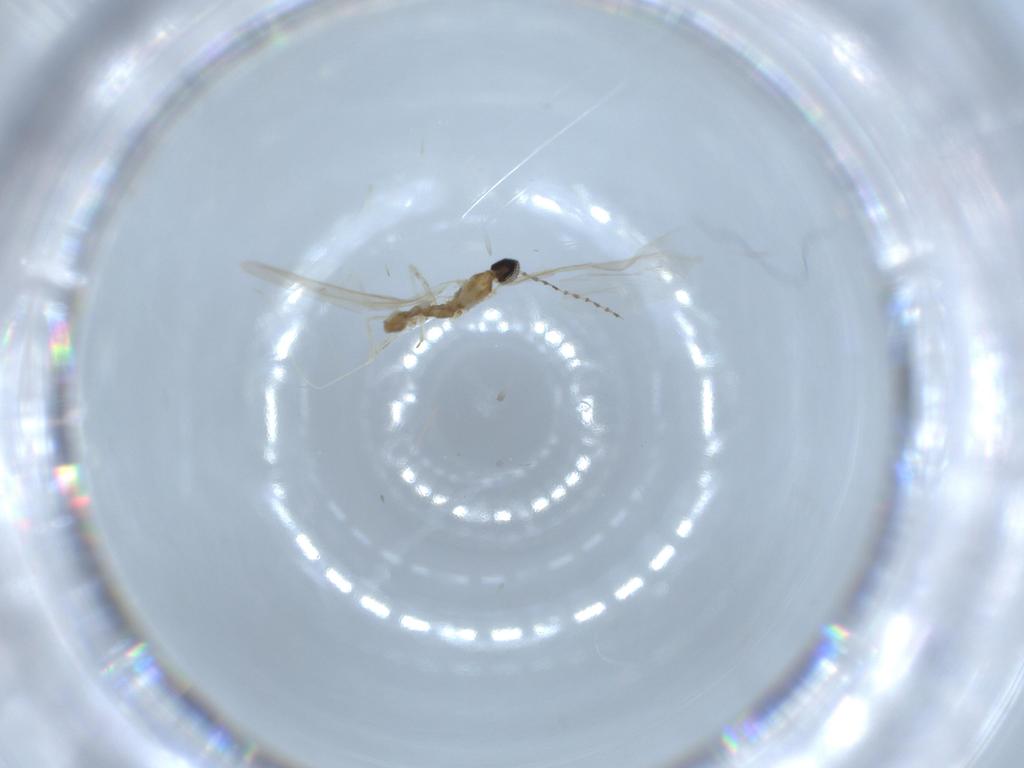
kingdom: Animalia
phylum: Arthropoda
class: Insecta
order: Diptera
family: Cecidomyiidae
